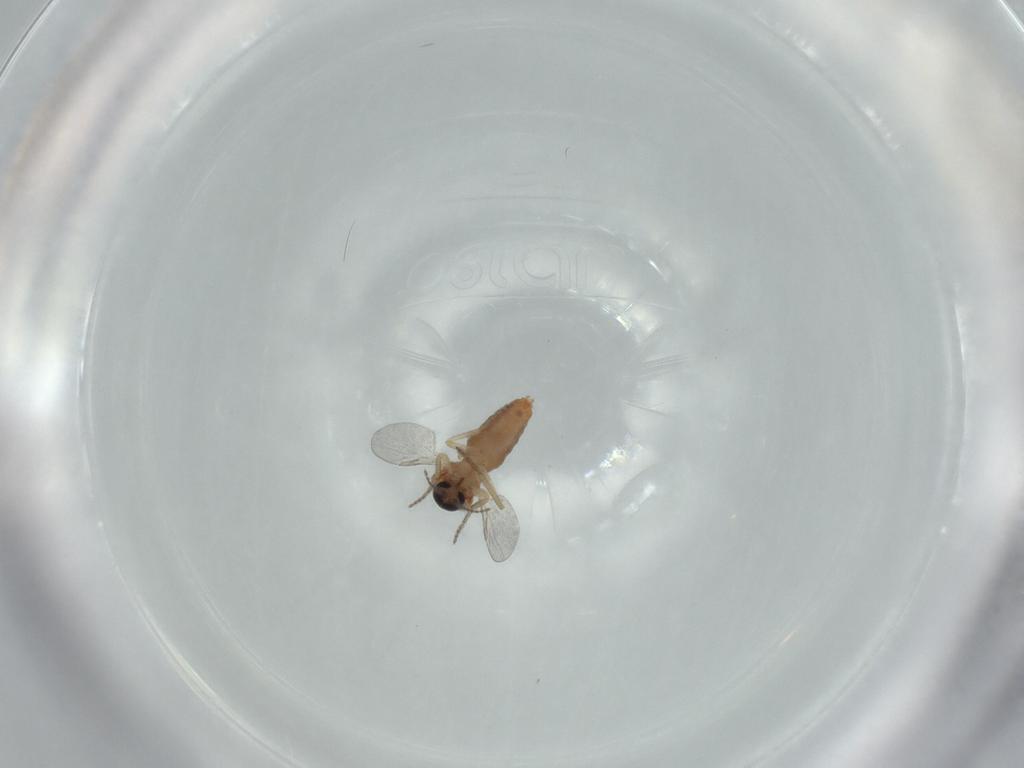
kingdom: Animalia
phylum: Arthropoda
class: Insecta
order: Diptera
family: Ceratopogonidae
